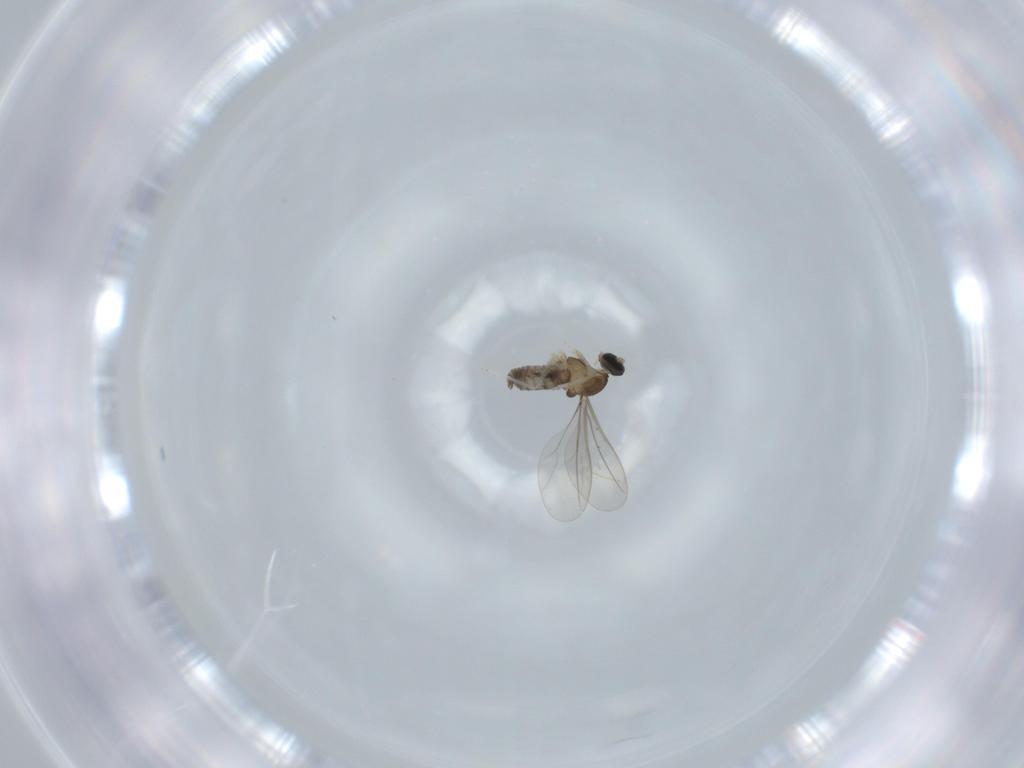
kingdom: Animalia
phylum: Arthropoda
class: Insecta
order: Diptera
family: Cecidomyiidae
